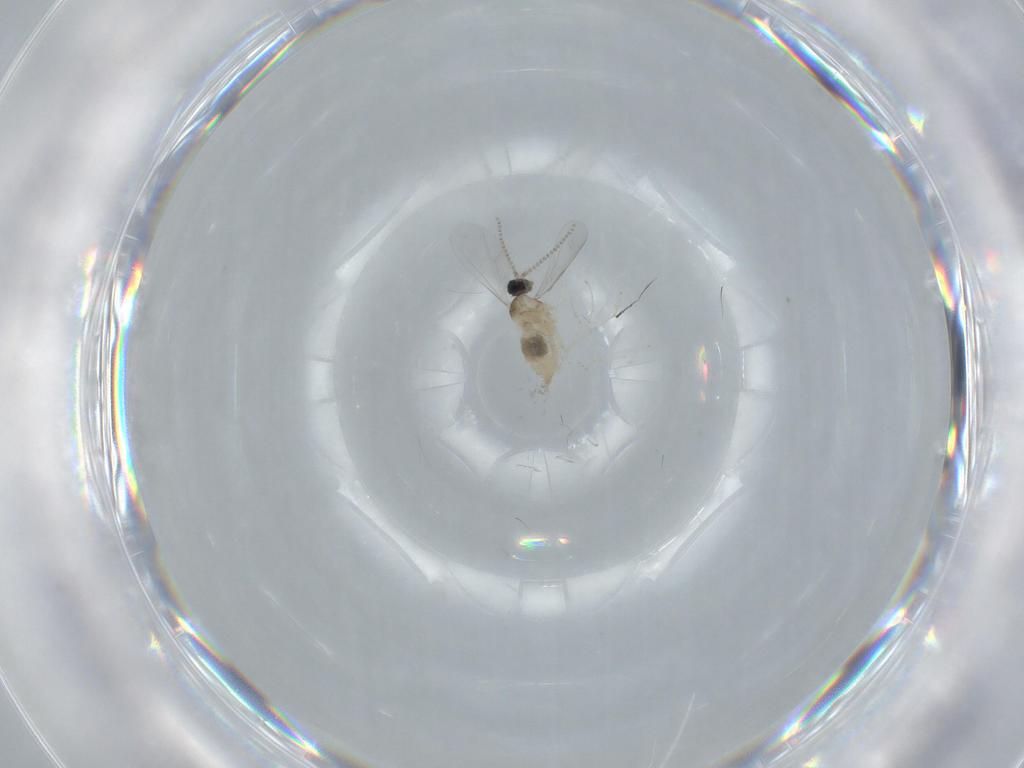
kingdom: Animalia
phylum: Arthropoda
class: Insecta
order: Diptera
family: Cecidomyiidae
